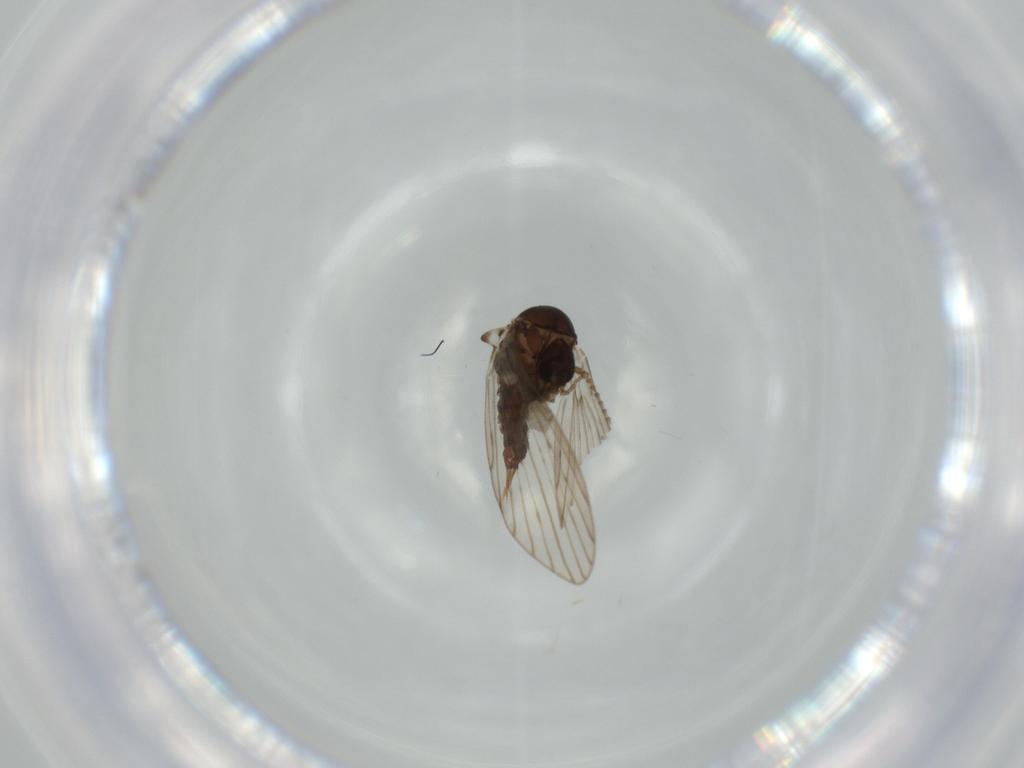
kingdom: Animalia
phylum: Arthropoda
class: Insecta
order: Diptera
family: Psychodidae
